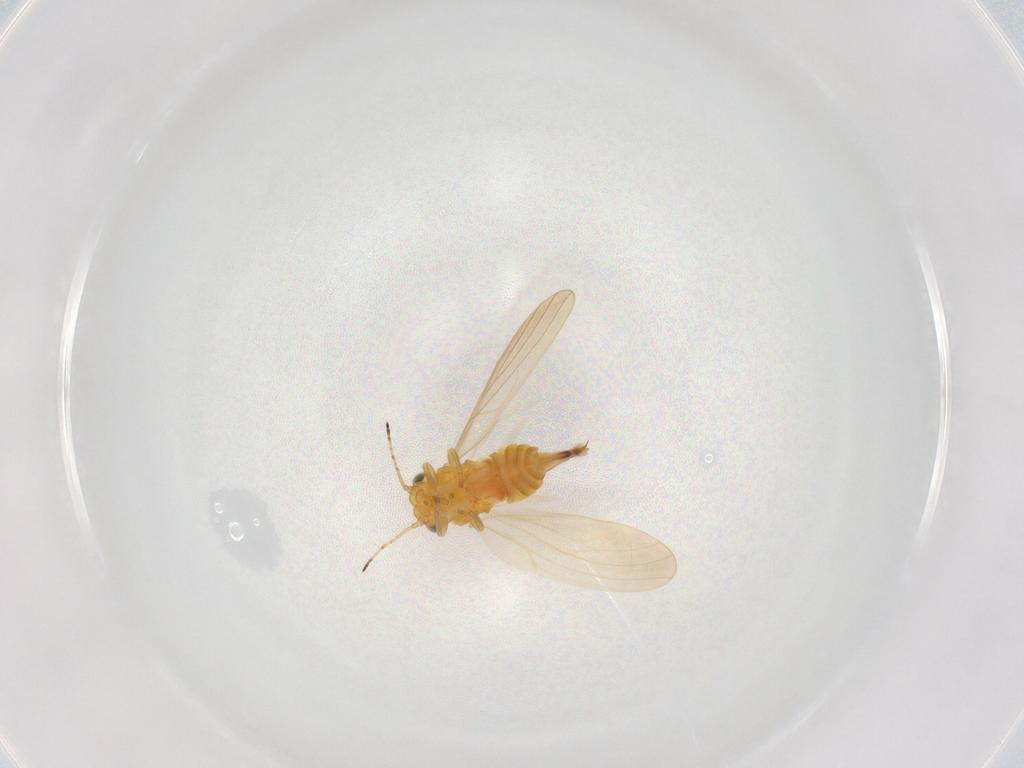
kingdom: Animalia
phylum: Arthropoda
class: Insecta
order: Hemiptera
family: Aphalaridae
